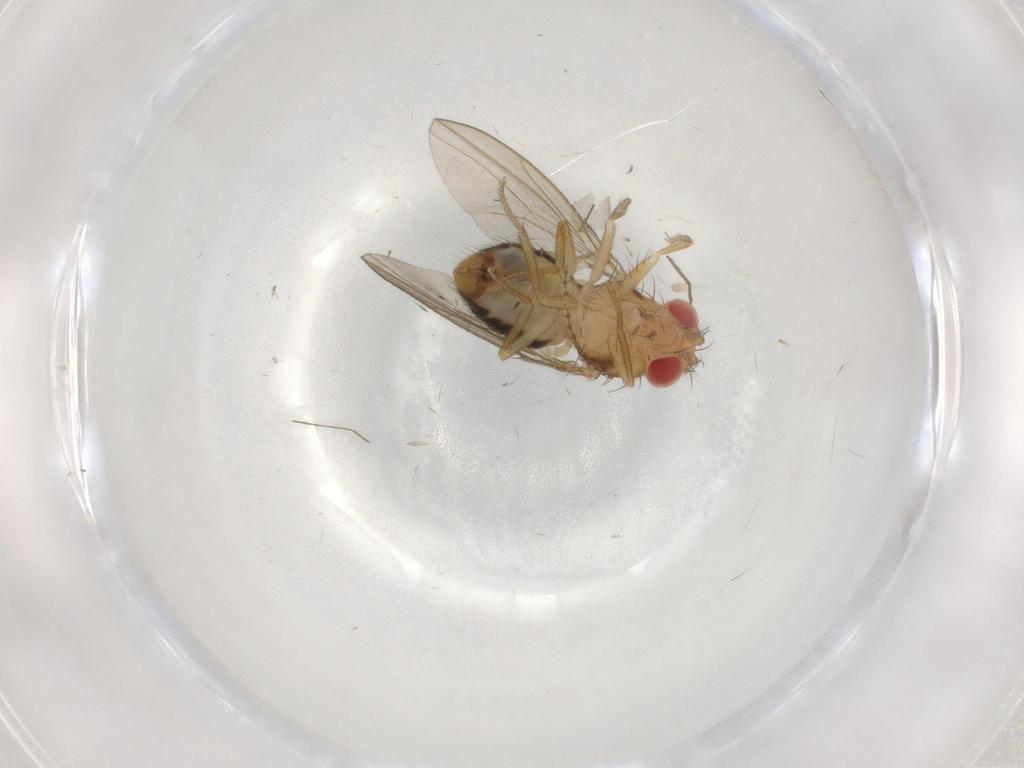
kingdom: Animalia
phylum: Arthropoda
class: Insecta
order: Diptera
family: Drosophilidae
